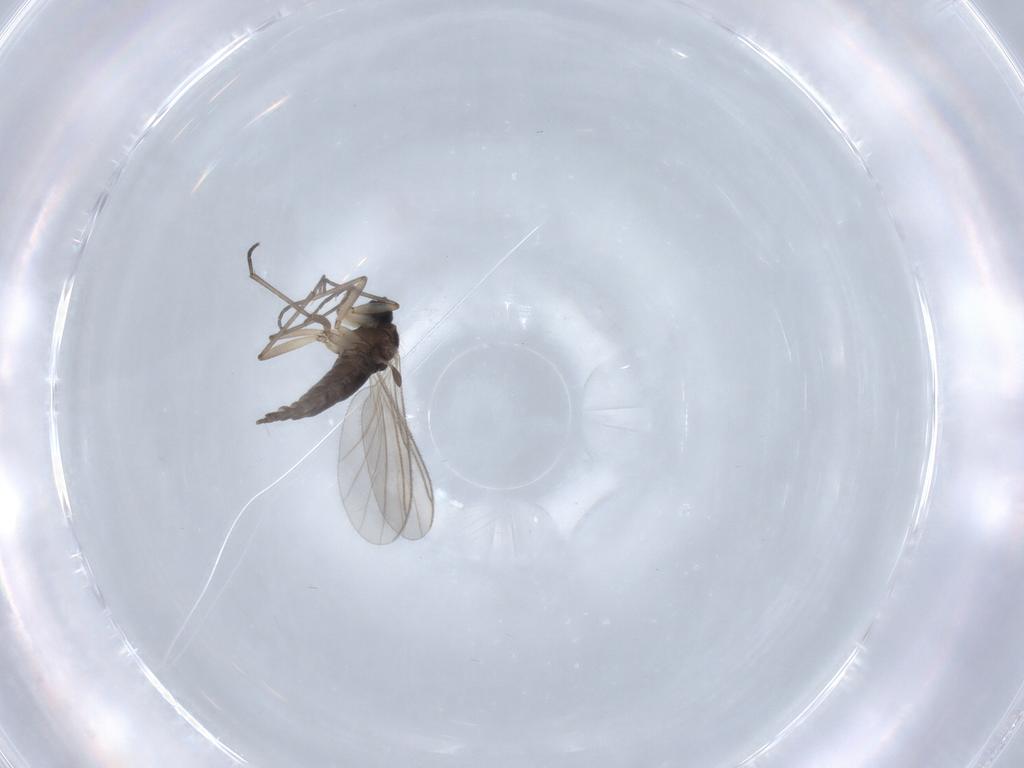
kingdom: Animalia
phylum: Arthropoda
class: Insecta
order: Diptera
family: Sciaridae
